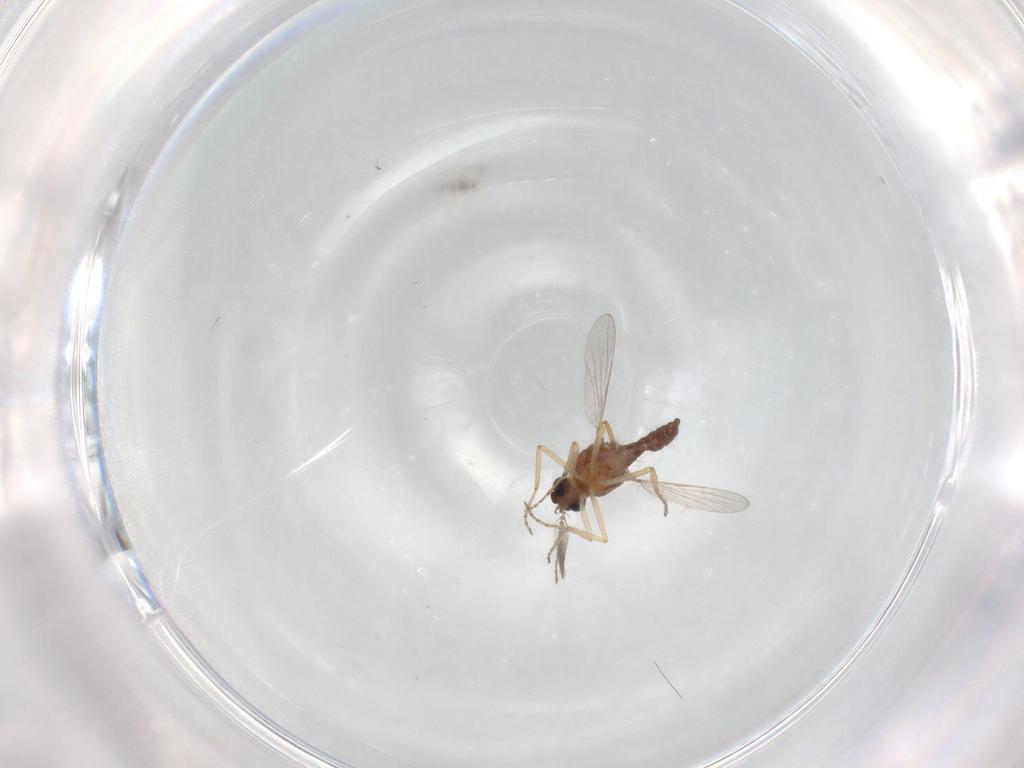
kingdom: Animalia
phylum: Arthropoda
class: Insecta
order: Diptera
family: Ceratopogonidae
